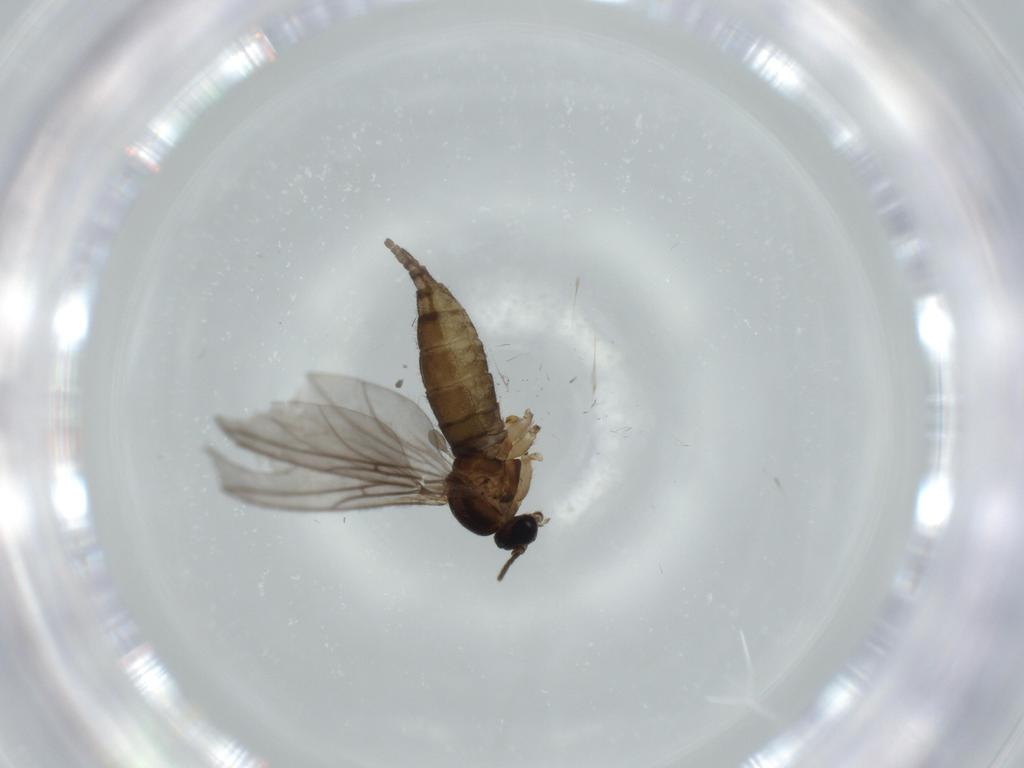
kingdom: Animalia
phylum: Arthropoda
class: Insecta
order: Diptera
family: Sciaridae
